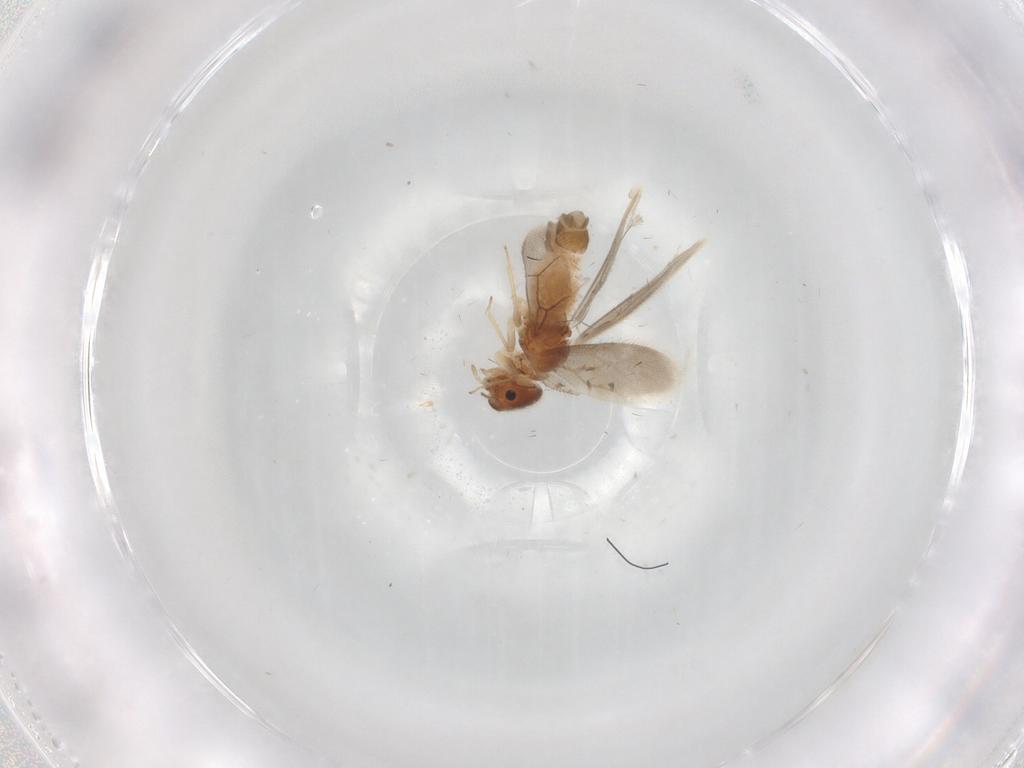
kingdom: Animalia
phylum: Arthropoda
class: Insecta
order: Psocodea
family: Archipsocidae
